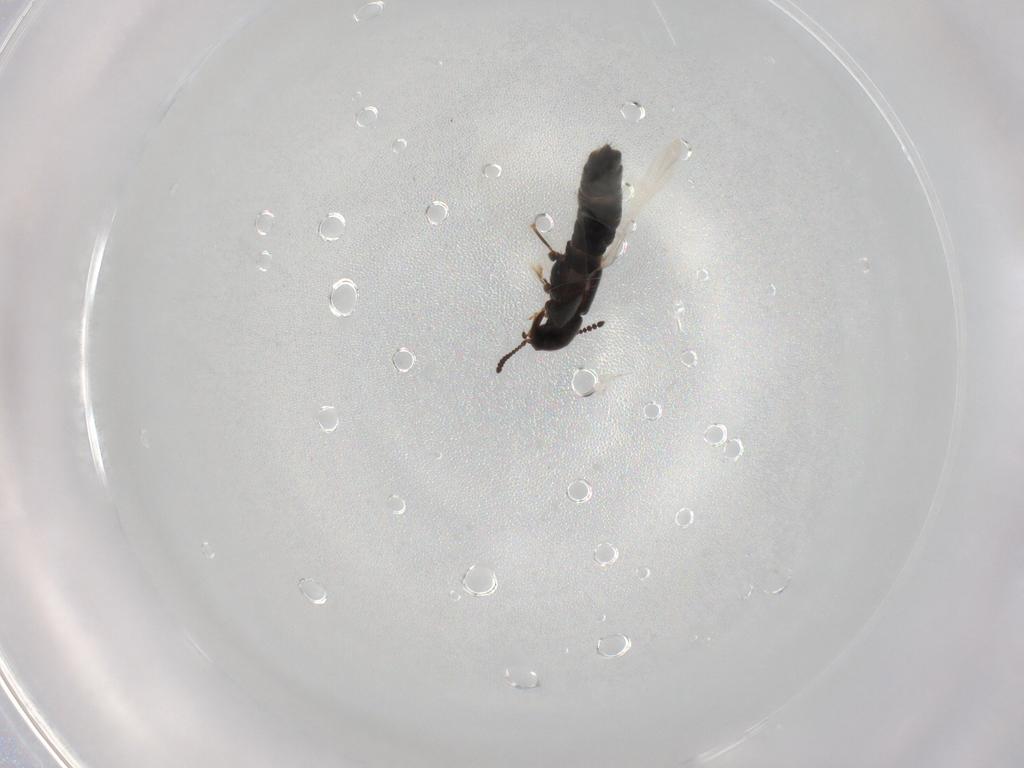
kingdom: Animalia
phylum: Arthropoda
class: Insecta
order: Coleoptera
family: Staphylinidae
